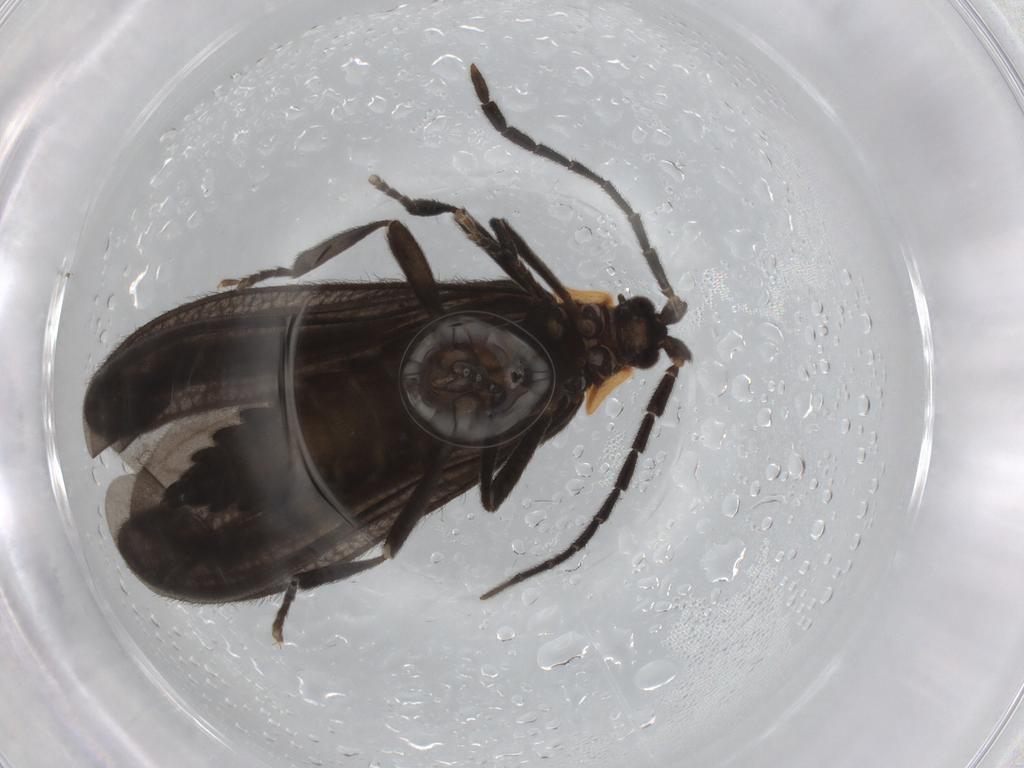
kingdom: Animalia
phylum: Arthropoda
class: Insecta
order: Coleoptera
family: Lycidae
